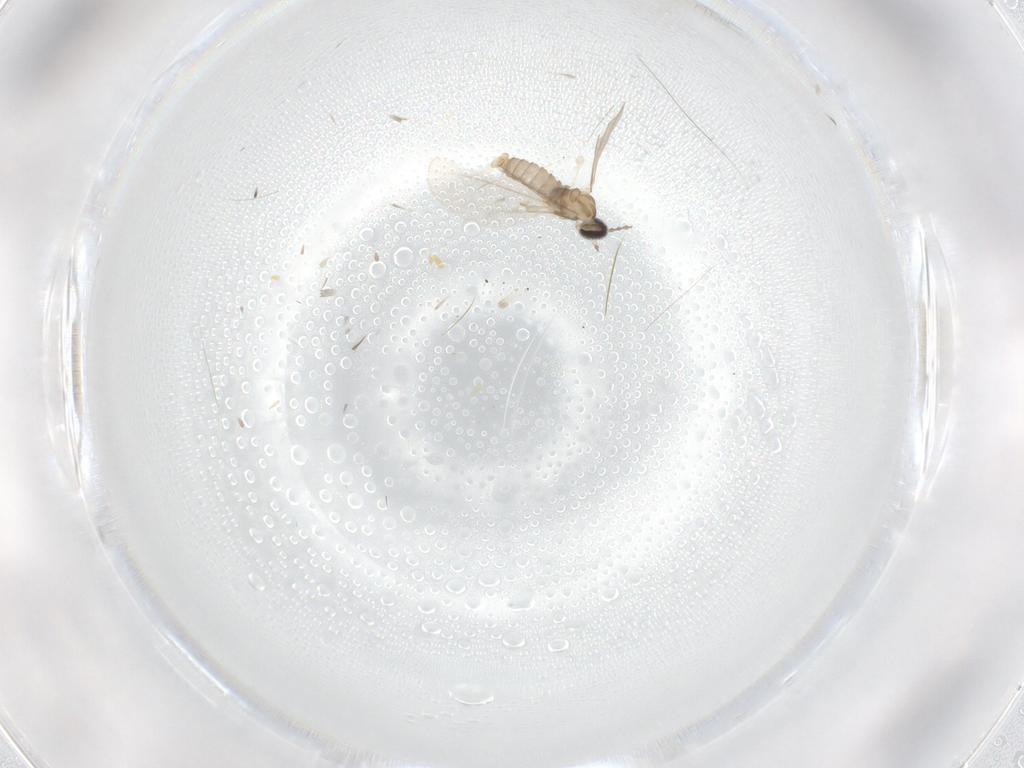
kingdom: Animalia
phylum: Arthropoda
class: Insecta
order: Diptera
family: Cecidomyiidae
